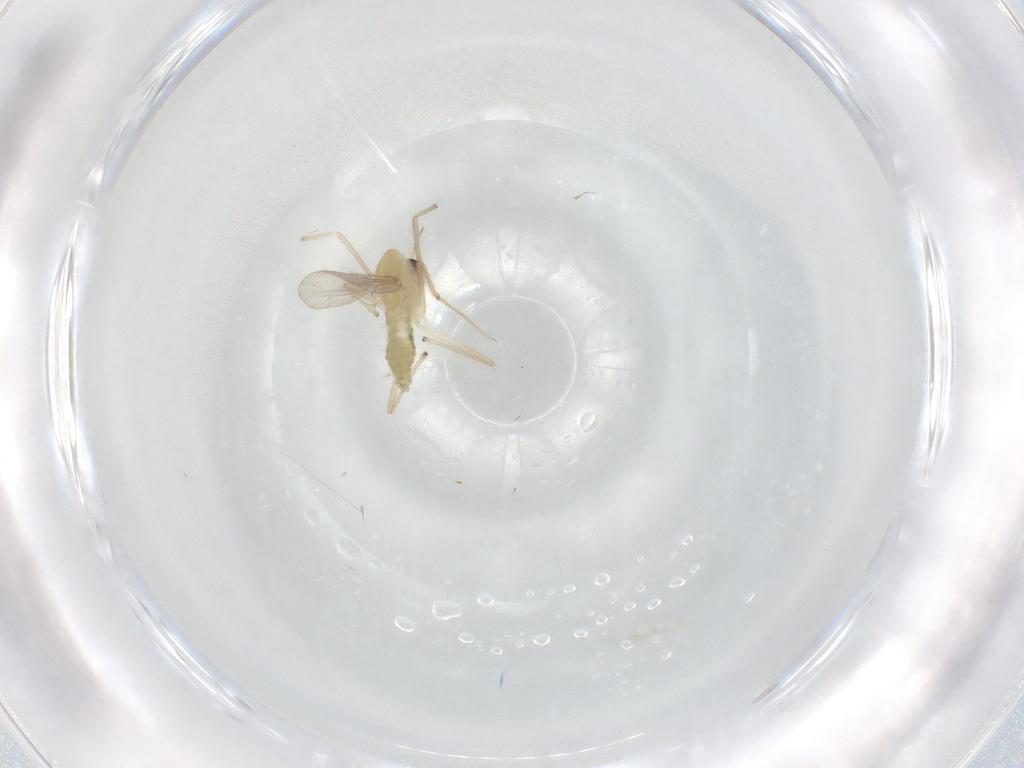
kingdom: Animalia
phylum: Arthropoda
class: Insecta
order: Diptera
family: Chironomidae
